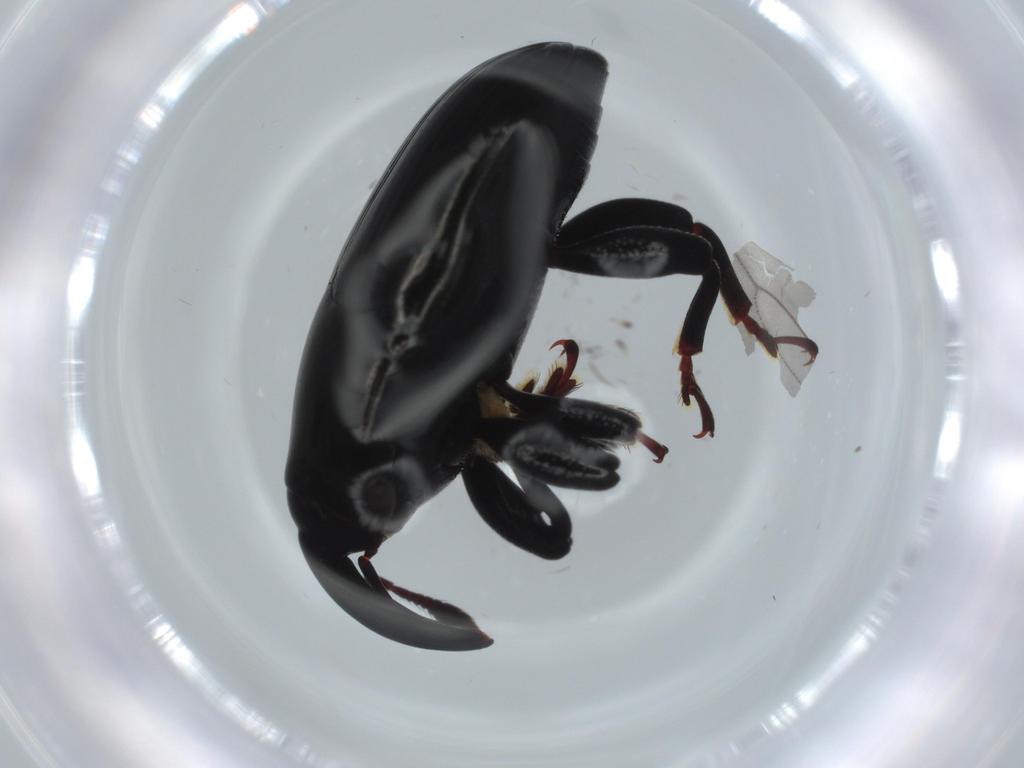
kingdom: Animalia
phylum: Arthropoda
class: Insecta
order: Coleoptera
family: Curculionidae
